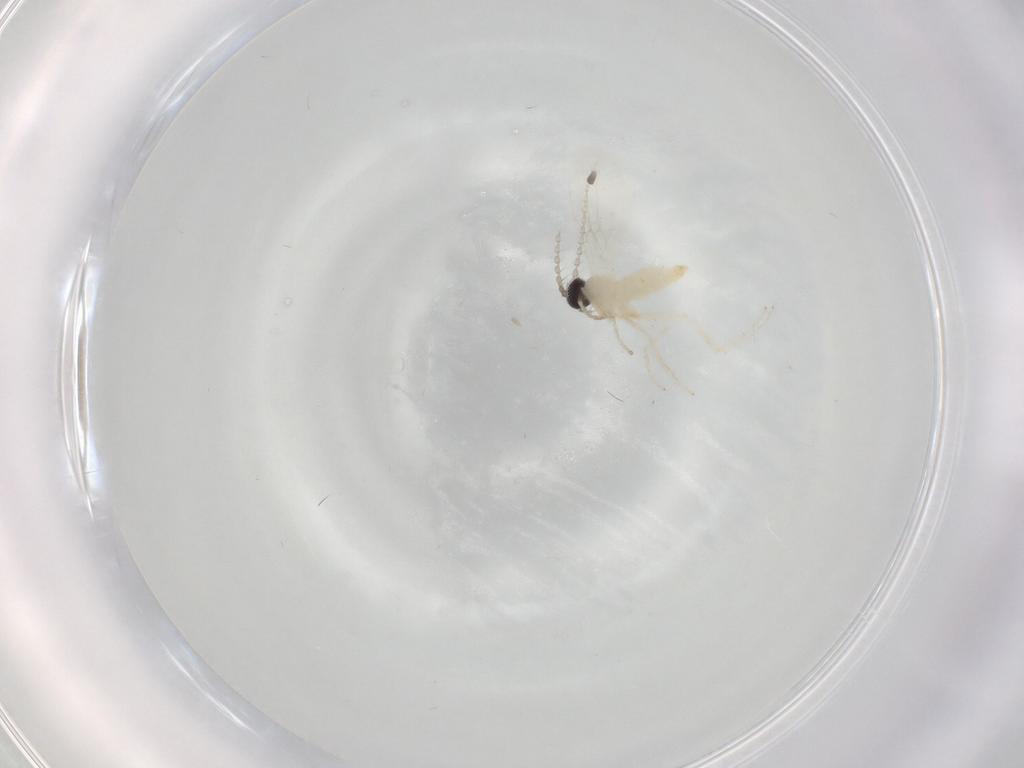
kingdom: Animalia
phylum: Arthropoda
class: Insecta
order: Diptera
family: Cecidomyiidae
